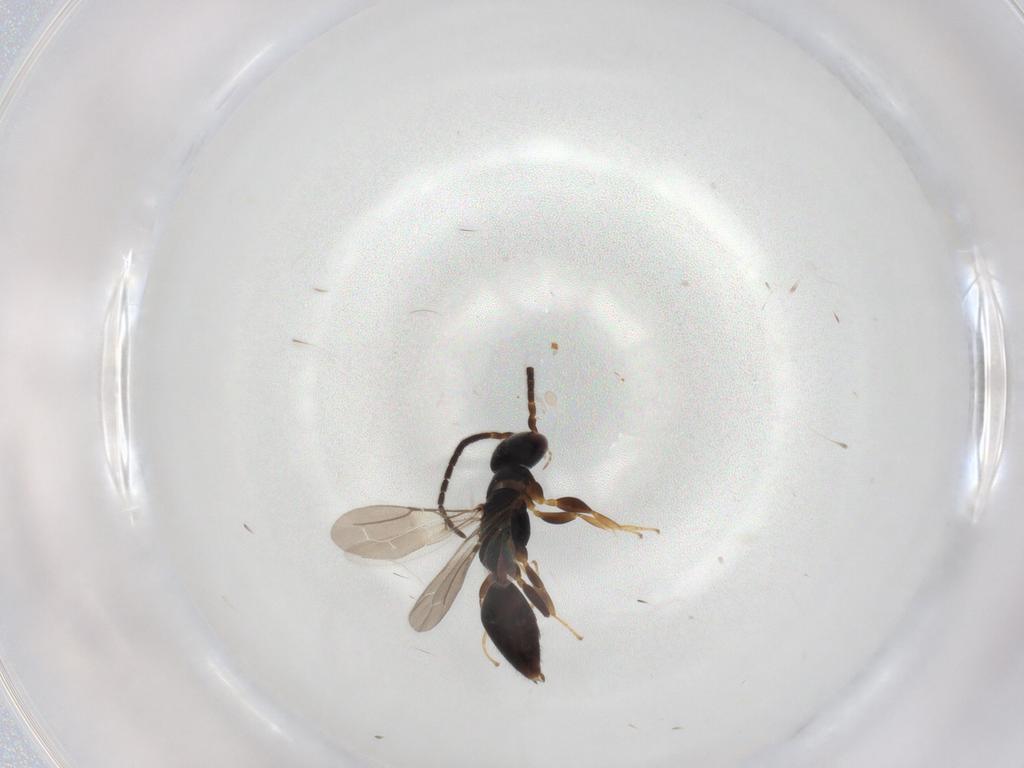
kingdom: Animalia
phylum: Arthropoda
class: Insecta
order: Hymenoptera
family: Bethylidae
